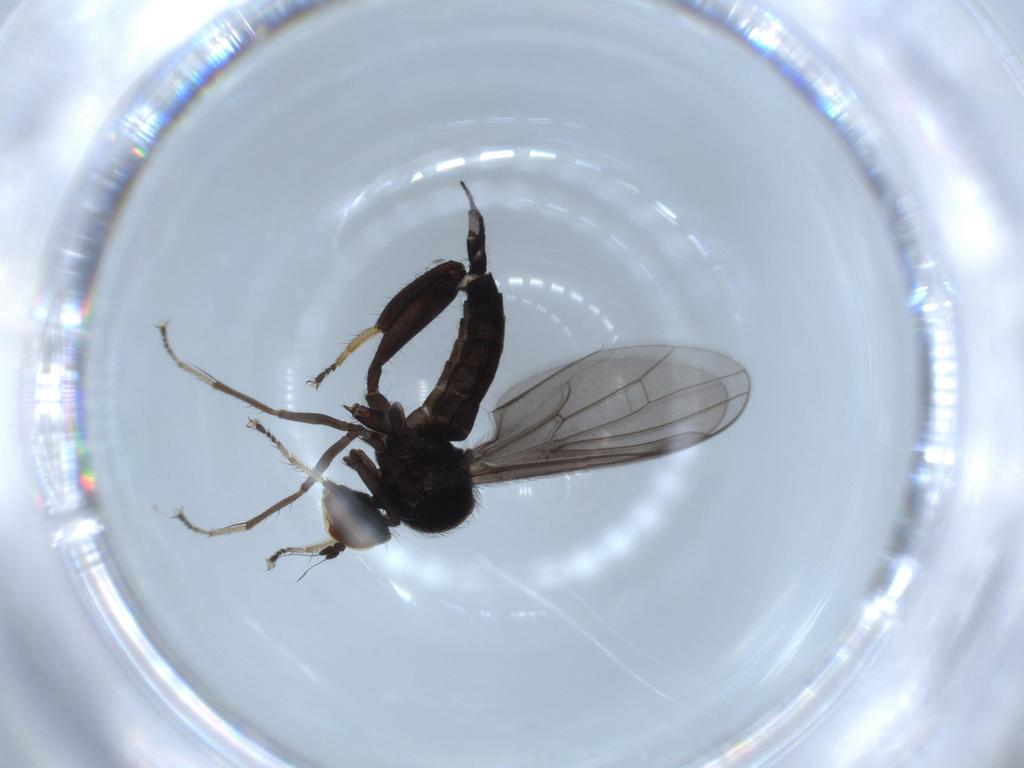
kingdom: Animalia
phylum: Arthropoda
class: Insecta
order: Diptera
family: Hybotidae
